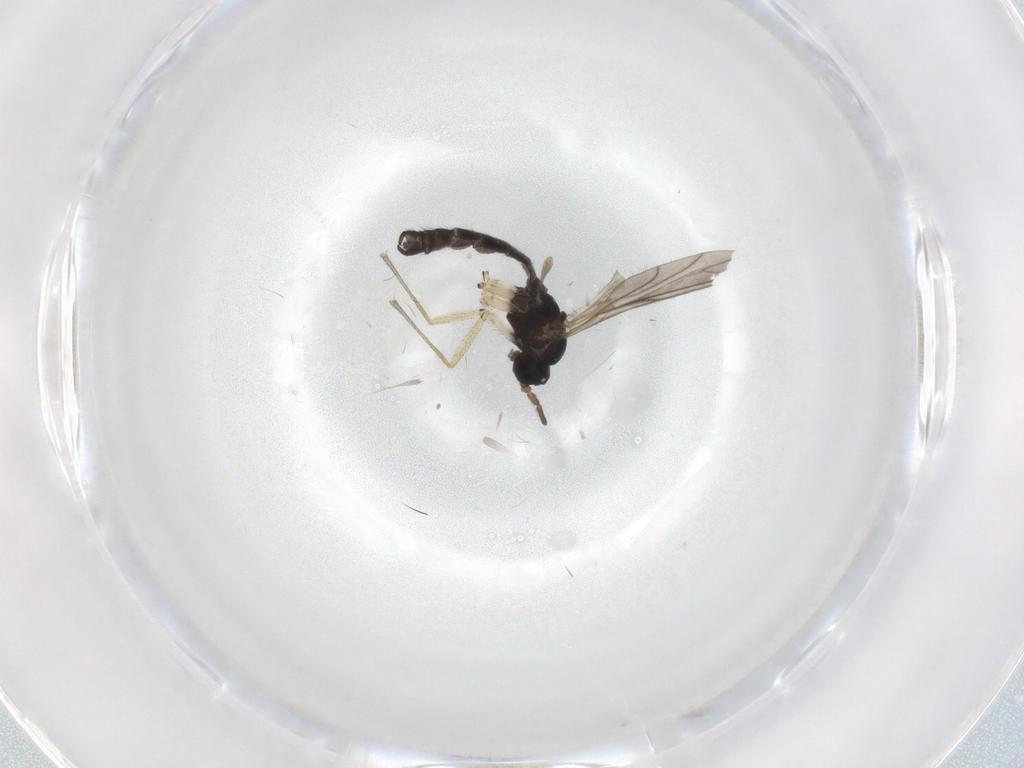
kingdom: Animalia
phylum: Arthropoda
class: Insecta
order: Diptera
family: Sciaridae
